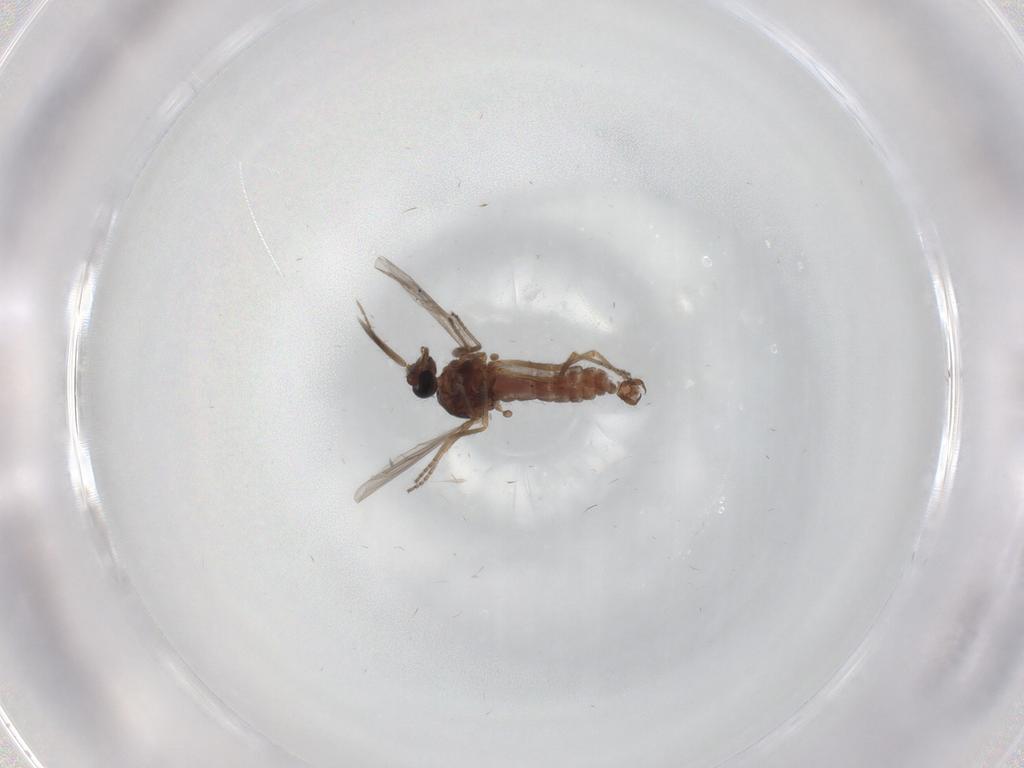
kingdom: Animalia
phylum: Arthropoda
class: Insecta
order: Diptera
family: Ceratopogonidae
